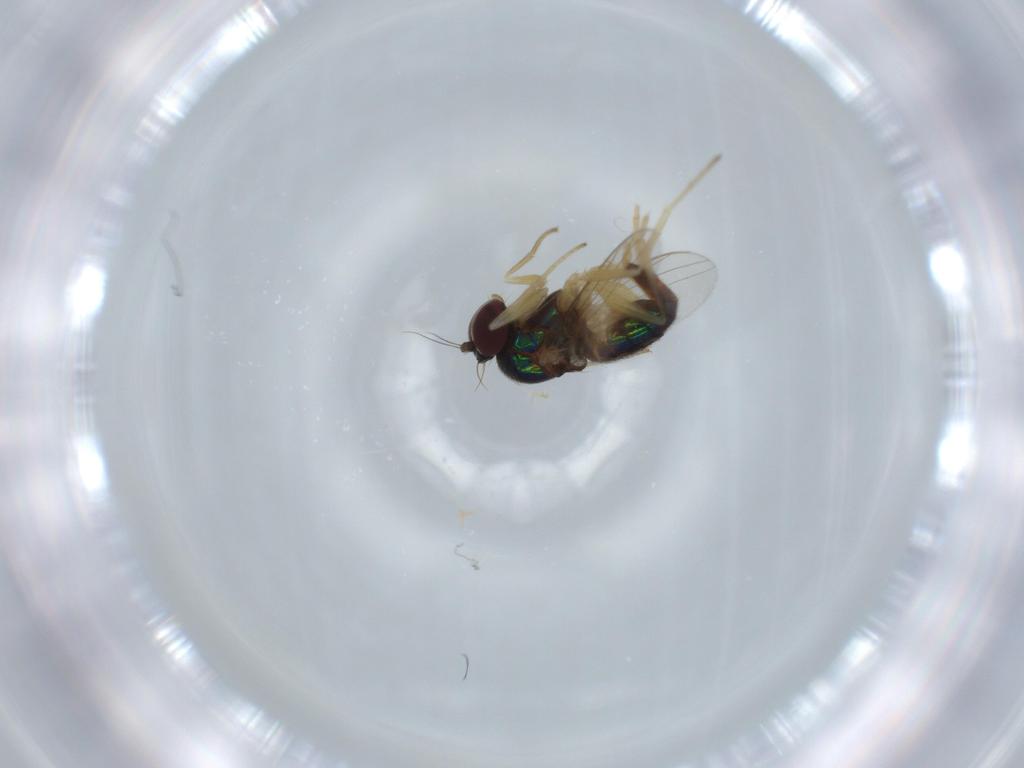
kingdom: Animalia
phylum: Arthropoda
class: Insecta
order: Diptera
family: Dolichopodidae
